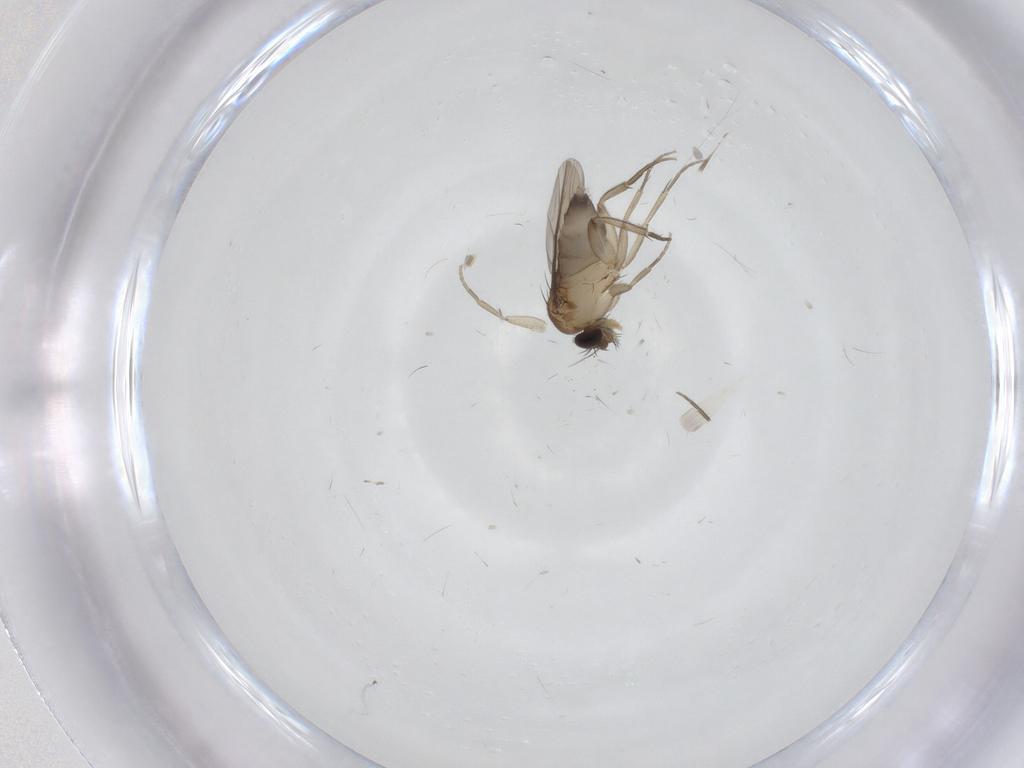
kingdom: Animalia
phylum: Arthropoda
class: Insecta
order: Diptera
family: Phoridae
